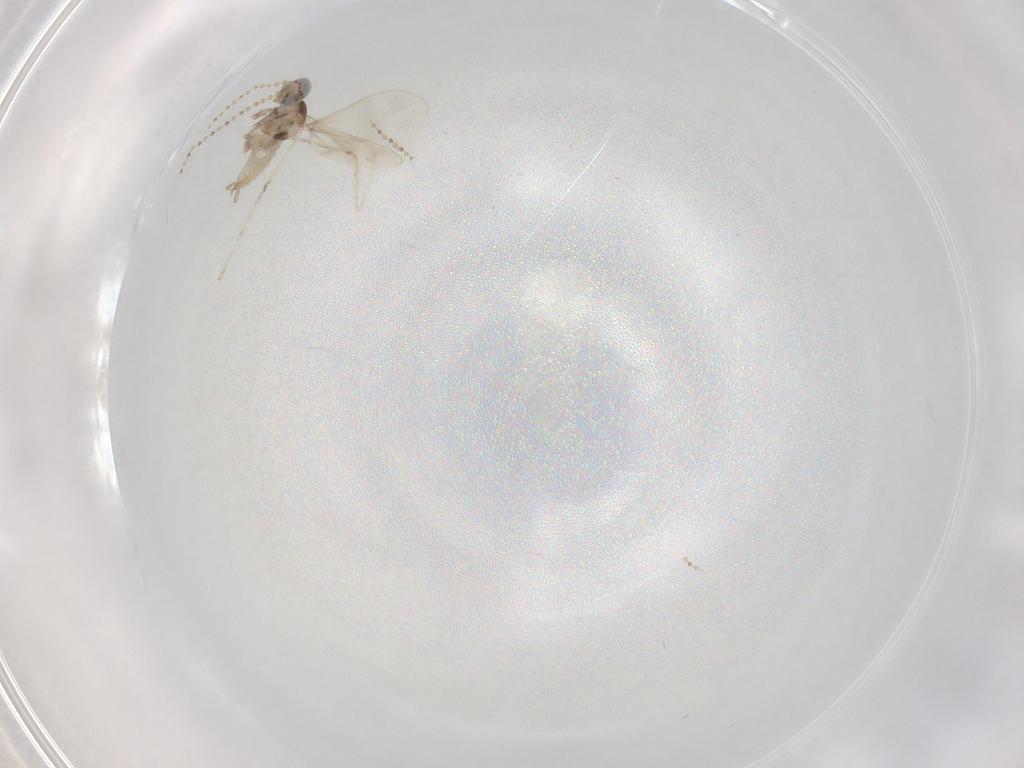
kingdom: Animalia
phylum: Arthropoda
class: Insecta
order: Diptera
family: Cecidomyiidae
